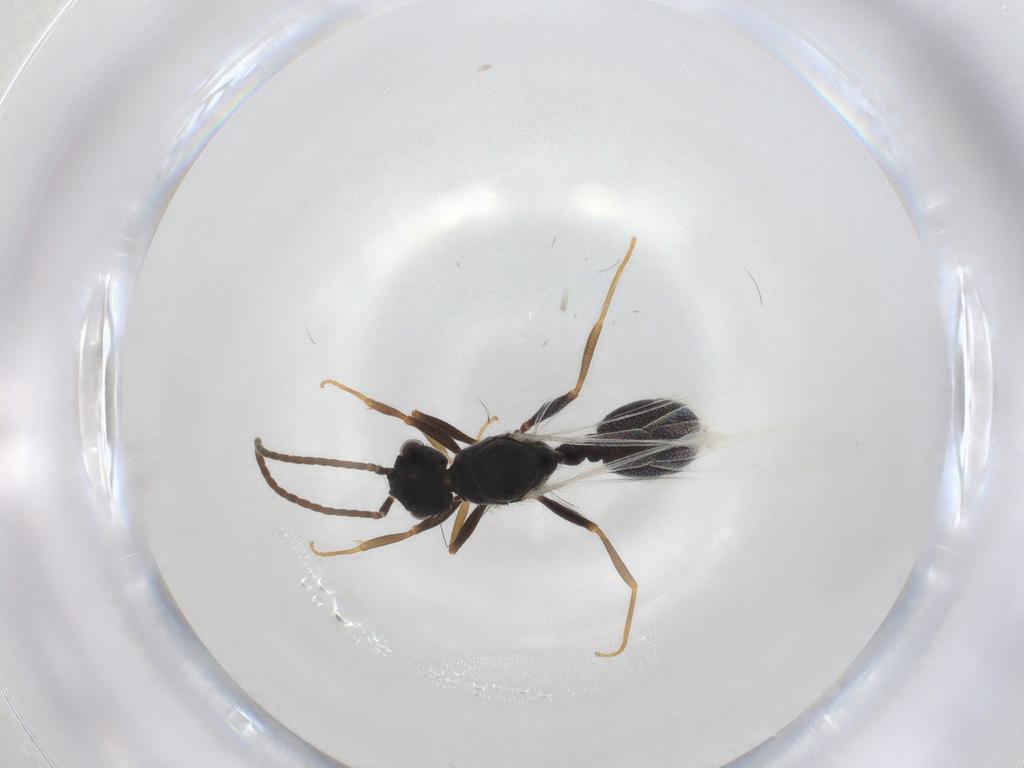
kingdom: Animalia
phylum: Arthropoda
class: Insecta
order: Hymenoptera
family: Formicidae
